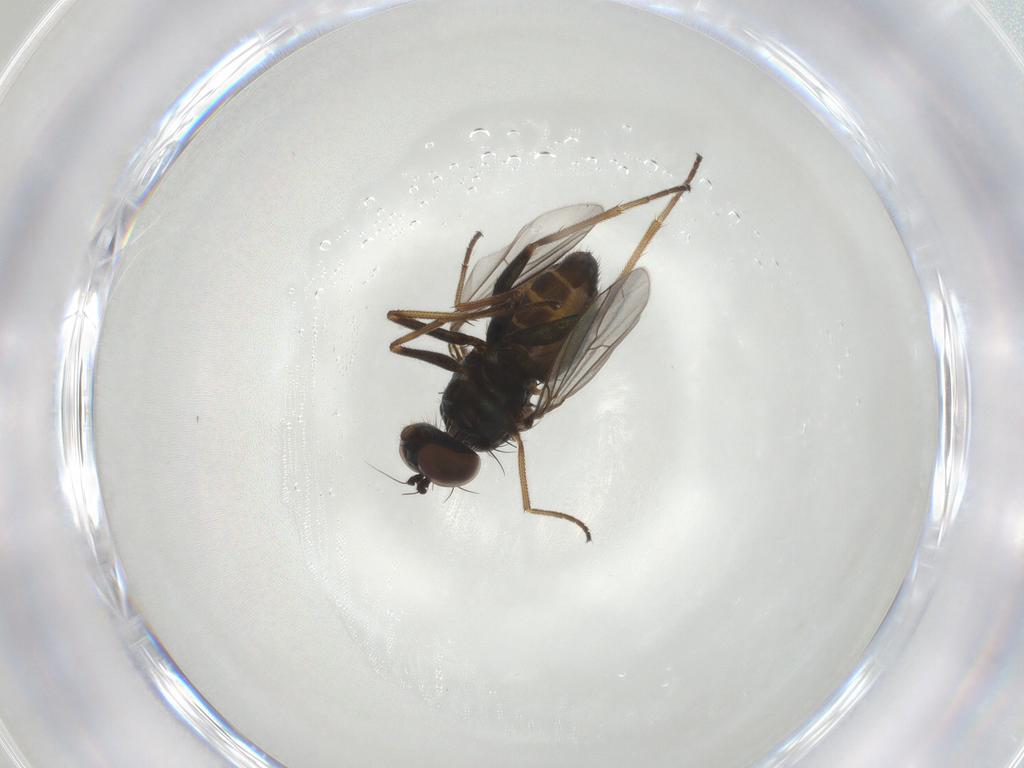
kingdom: Animalia
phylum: Arthropoda
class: Insecta
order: Diptera
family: Dolichopodidae
